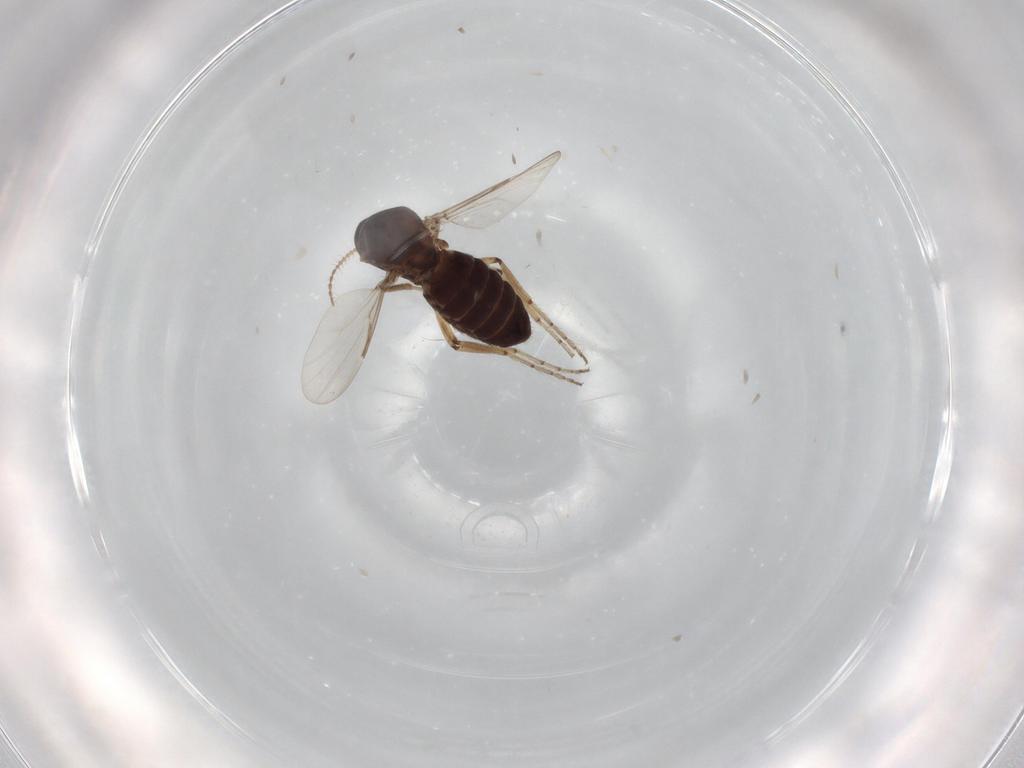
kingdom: Animalia
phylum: Arthropoda
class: Insecta
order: Diptera
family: Ceratopogonidae
